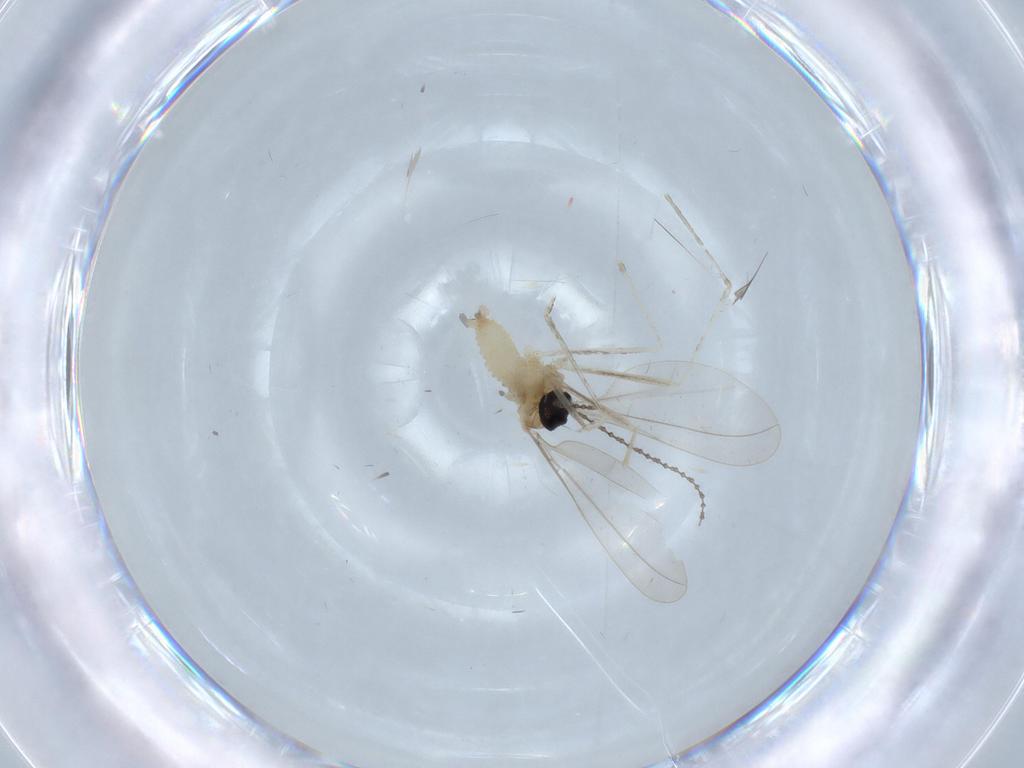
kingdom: Animalia
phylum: Arthropoda
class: Insecta
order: Diptera
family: Cecidomyiidae
